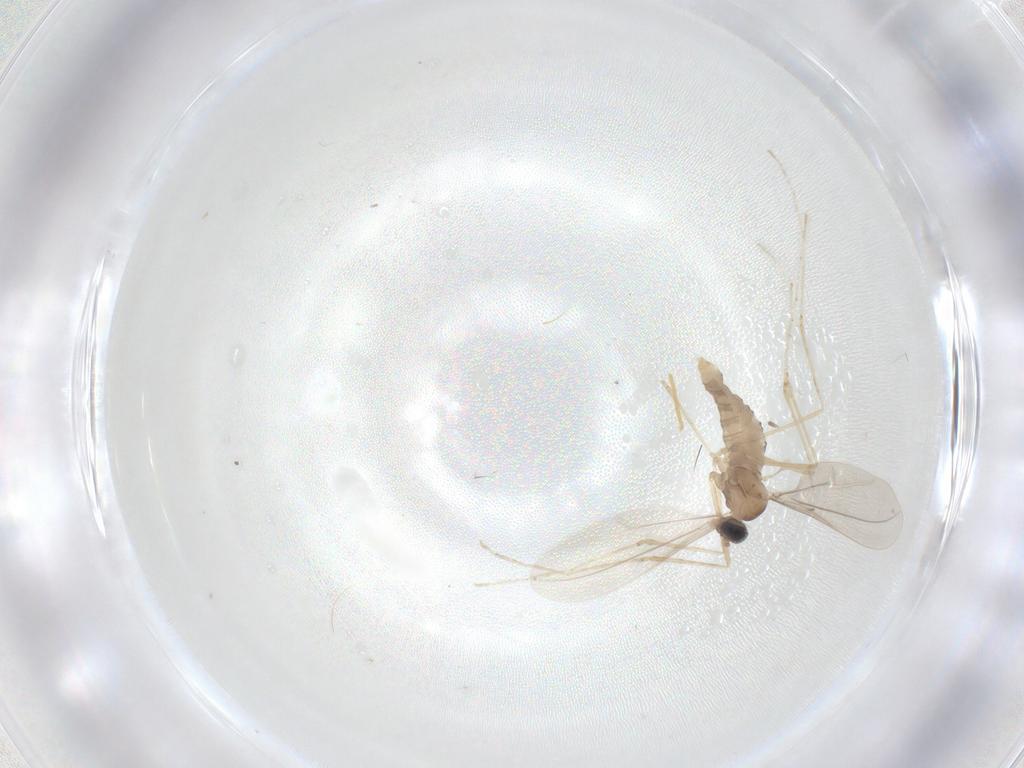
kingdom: Animalia
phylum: Arthropoda
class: Insecta
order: Diptera
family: Cecidomyiidae
